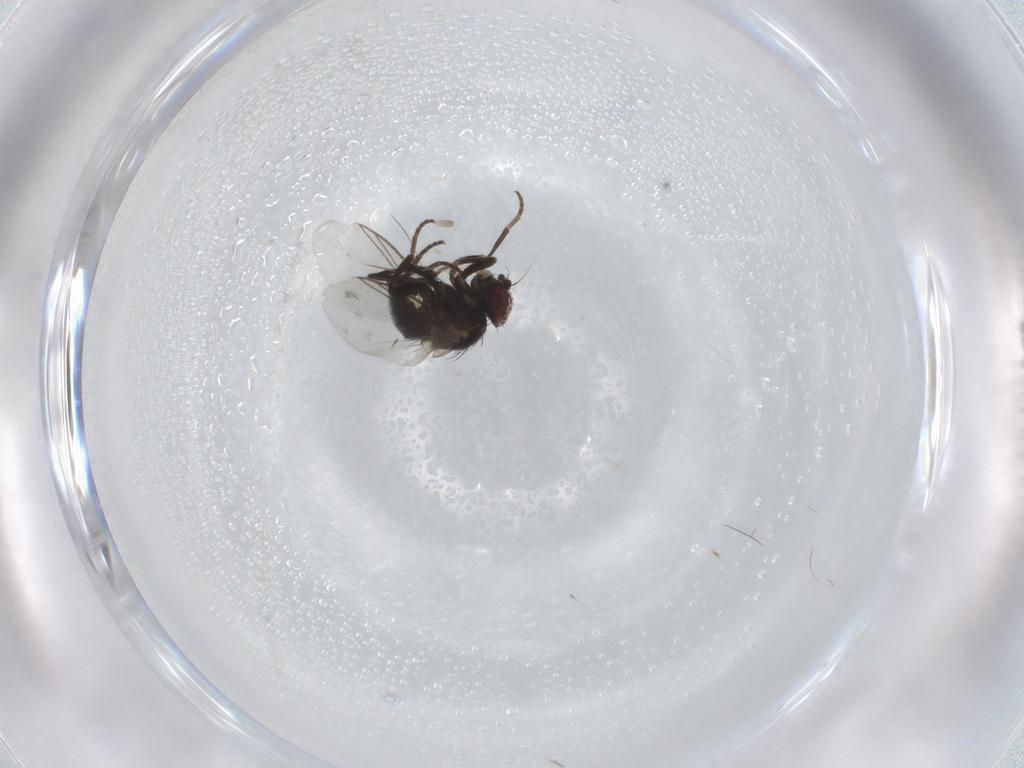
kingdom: Animalia
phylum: Arthropoda
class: Insecta
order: Diptera
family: Agromyzidae
